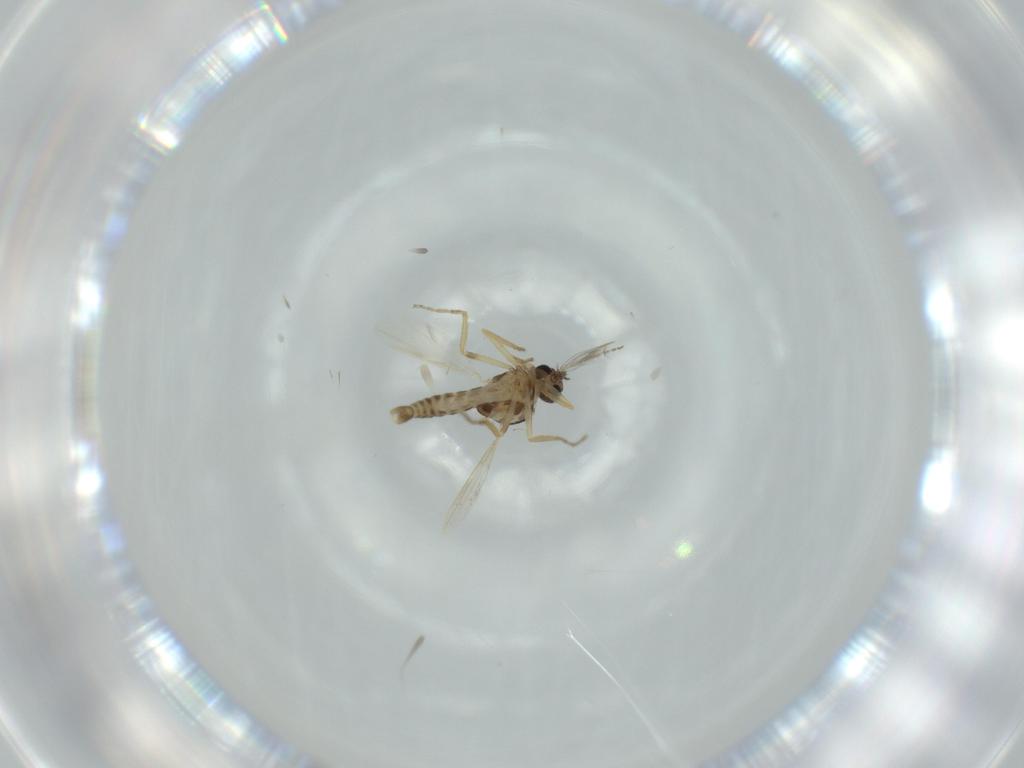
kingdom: Animalia
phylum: Arthropoda
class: Insecta
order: Diptera
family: Ceratopogonidae
